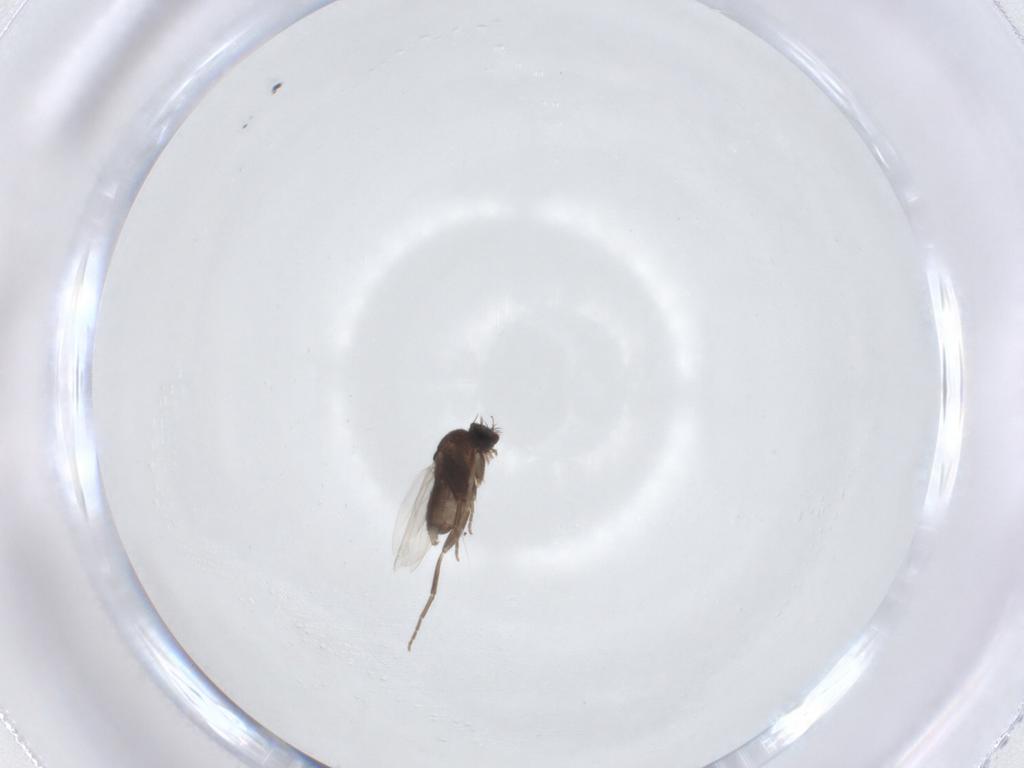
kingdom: Animalia
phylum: Arthropoda
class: Insecta
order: Diptera
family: Phoridae
